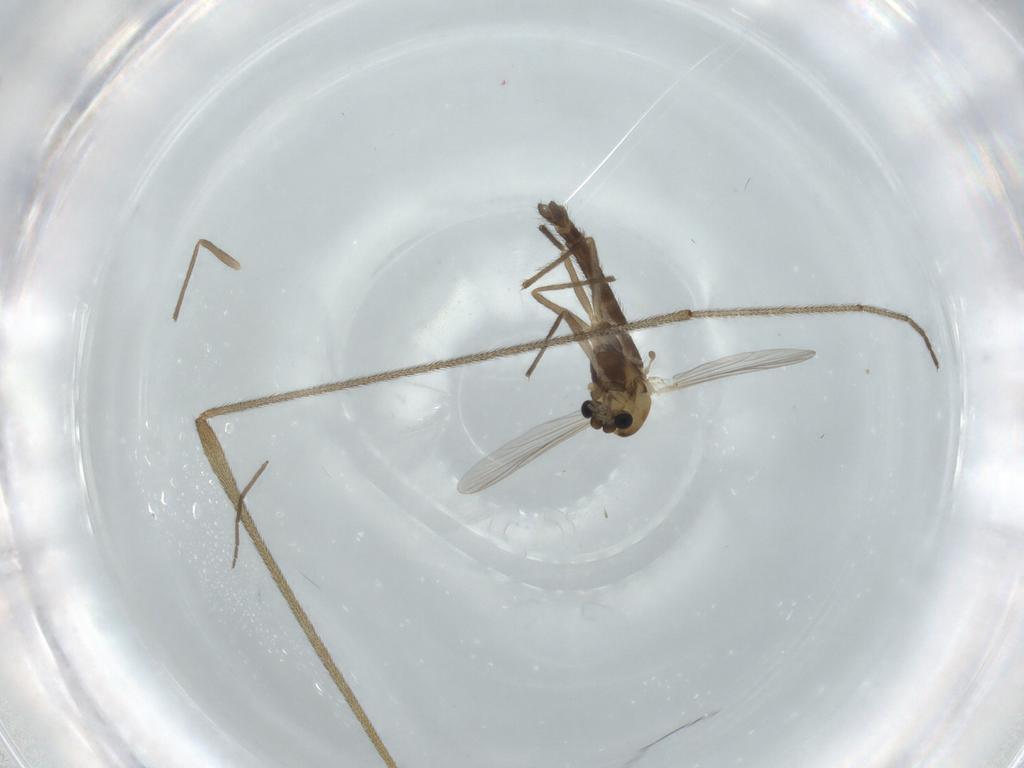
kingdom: Animalia
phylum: Arthropoda
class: Insecta
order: Diptera
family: Chironomidae
